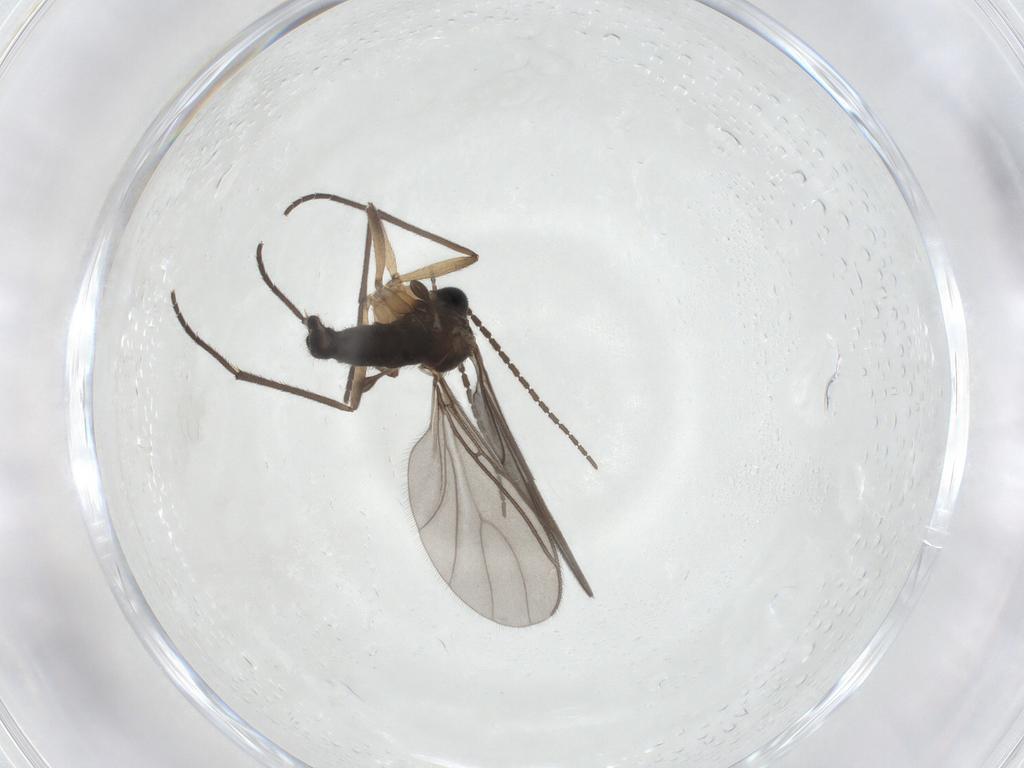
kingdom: Animalia
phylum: Arthropoda
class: Insecta
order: Diptera
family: Sciaridae
